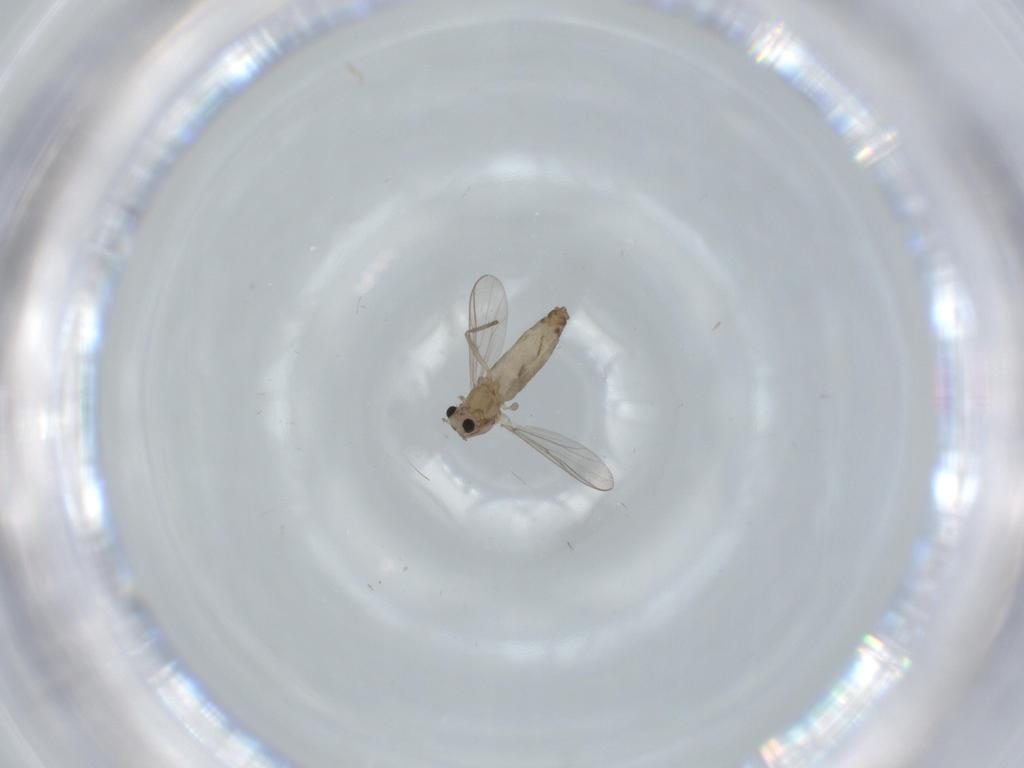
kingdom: Animalia
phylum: Arthropoda
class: Insecta
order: Diptera
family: Chironomidae
